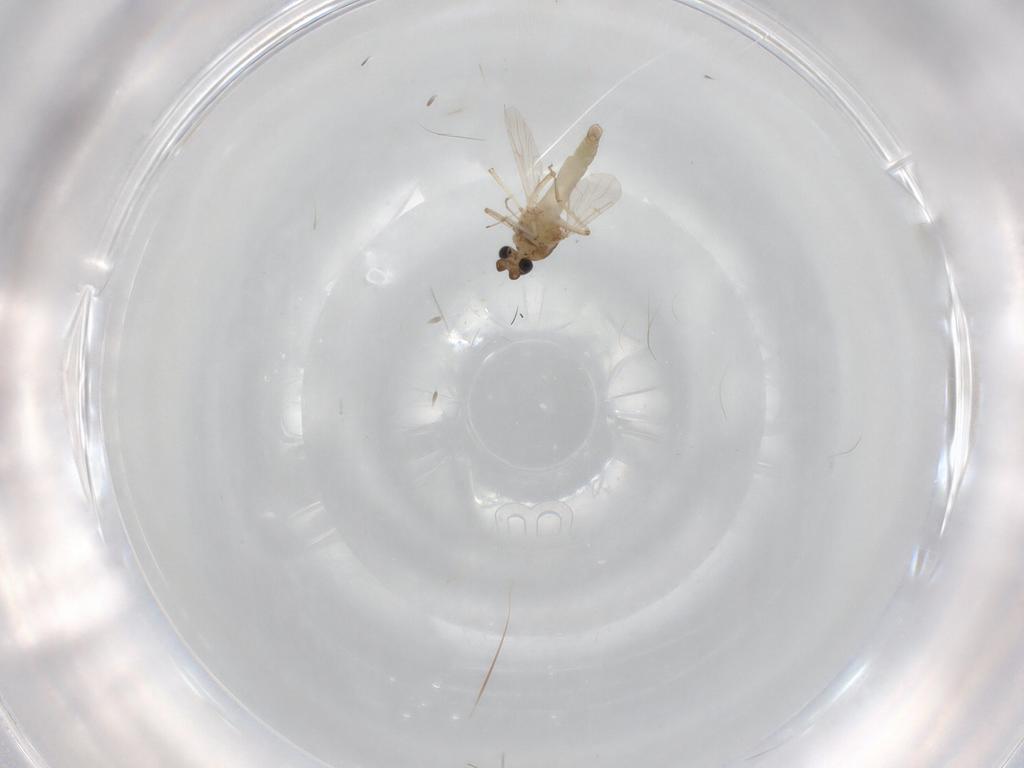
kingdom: Animalia
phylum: Arthropoda
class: Insecta
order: Diptera
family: Ceratopogonidae
